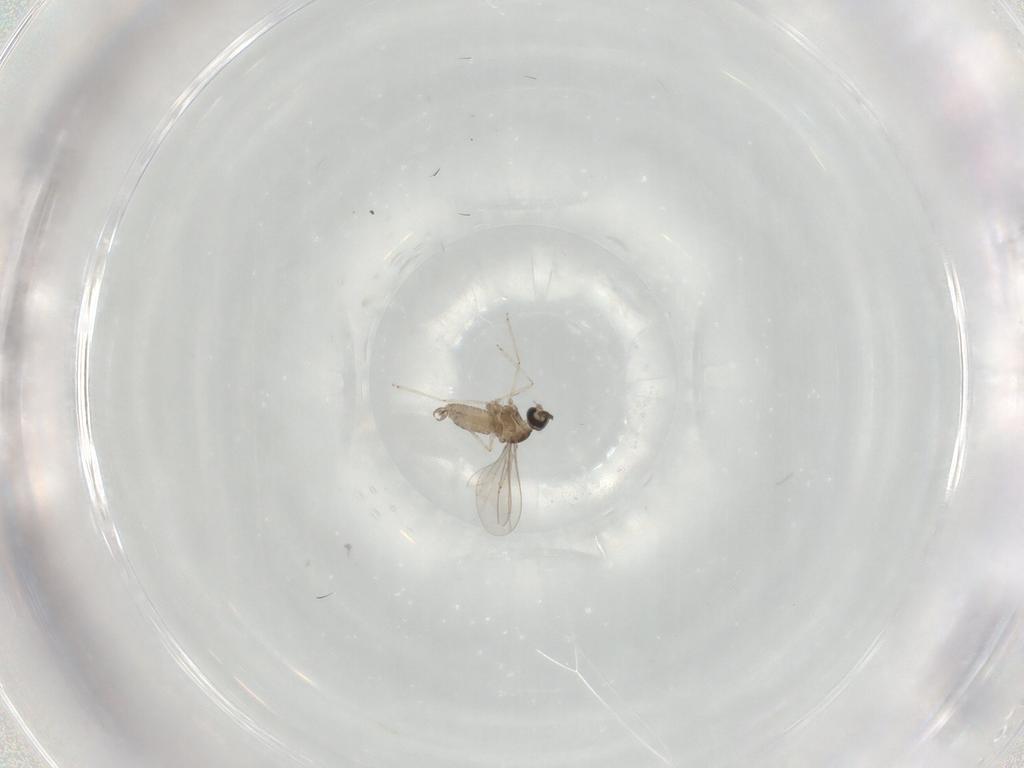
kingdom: Animalia
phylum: Arthropoda
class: Insecta
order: Diptera
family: Cecidomyiidae
